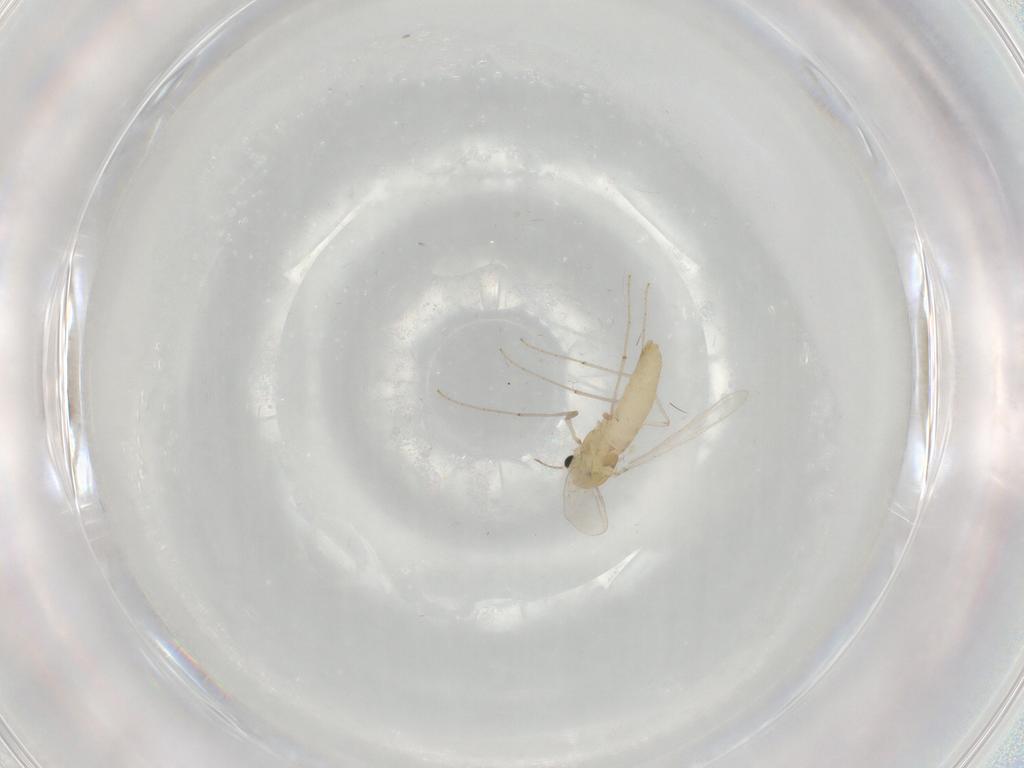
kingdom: Animalia
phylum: Arthropoda
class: Insecta
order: Diptera
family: Chironomidae
